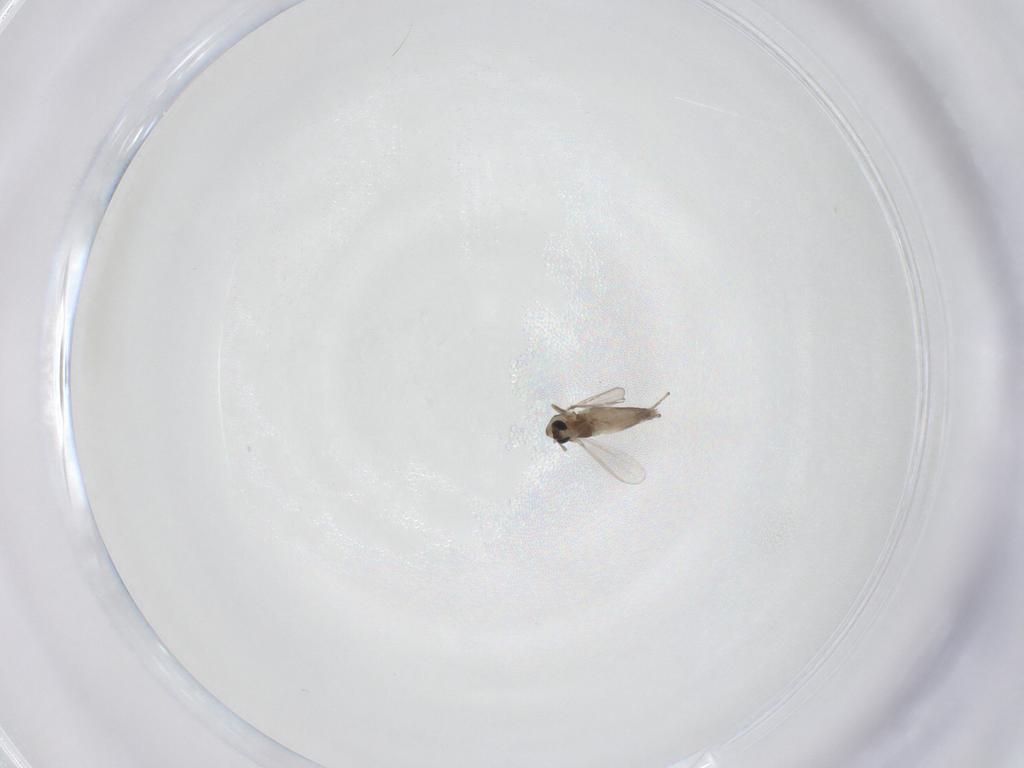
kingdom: Animalia
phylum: Arthropoda
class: Insecta
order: Diptera
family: Chironomidae
